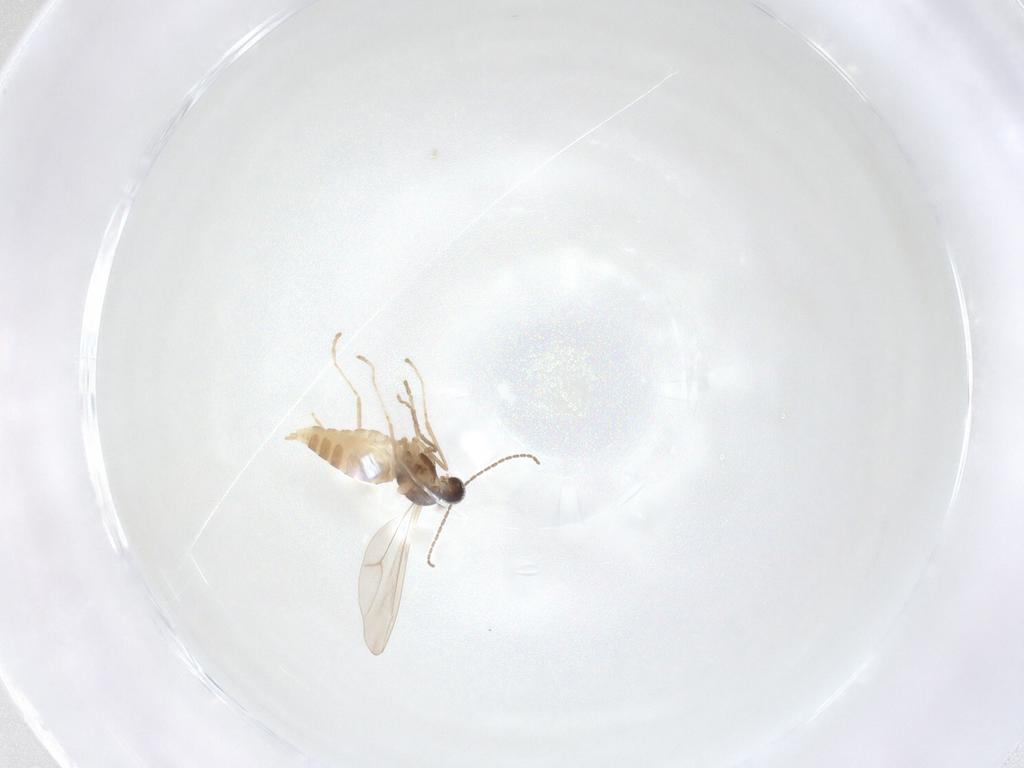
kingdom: Animalia
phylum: Arthropoda
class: Insecta
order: Diptera
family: Cecidomyiidae
